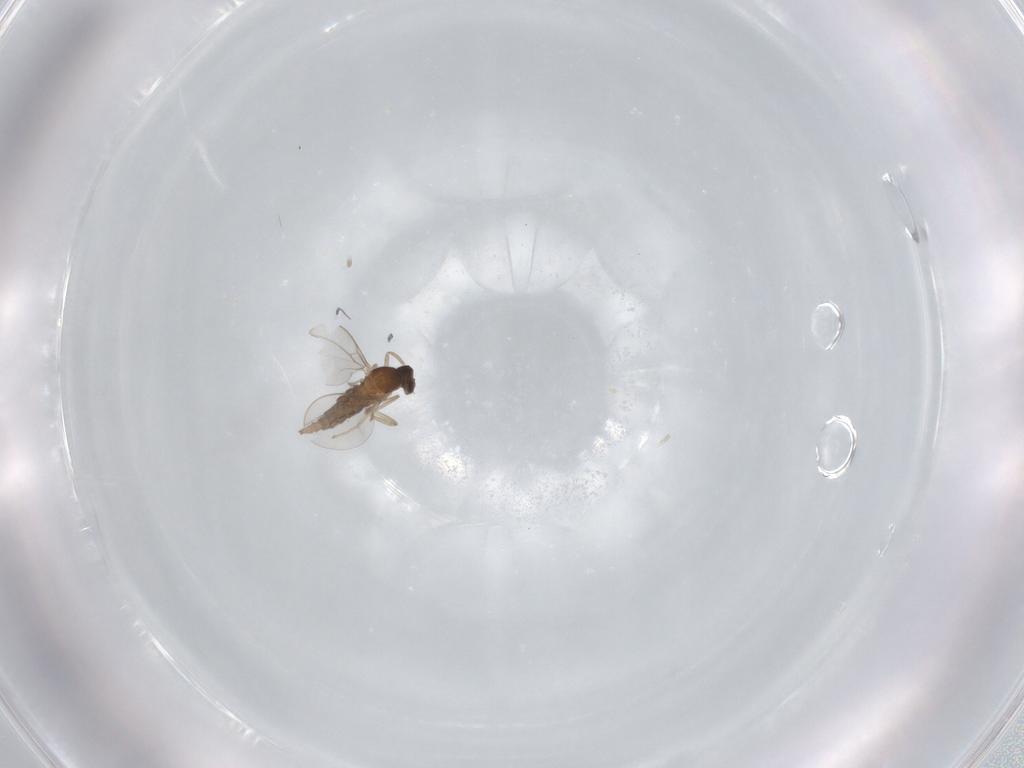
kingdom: Animalia
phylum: Arthropoda
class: Insecta
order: Diptera
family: Cecidomyiidae
